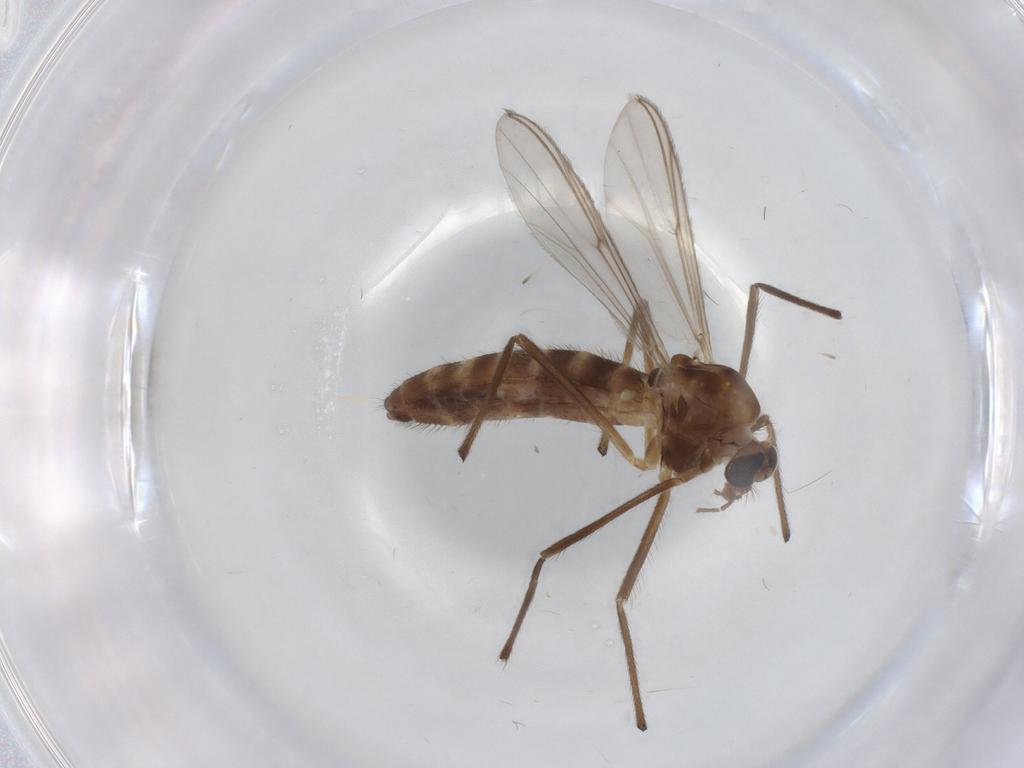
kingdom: Animalia
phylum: Arthropoda
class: Insecta
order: Diptera
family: Chironomidae
